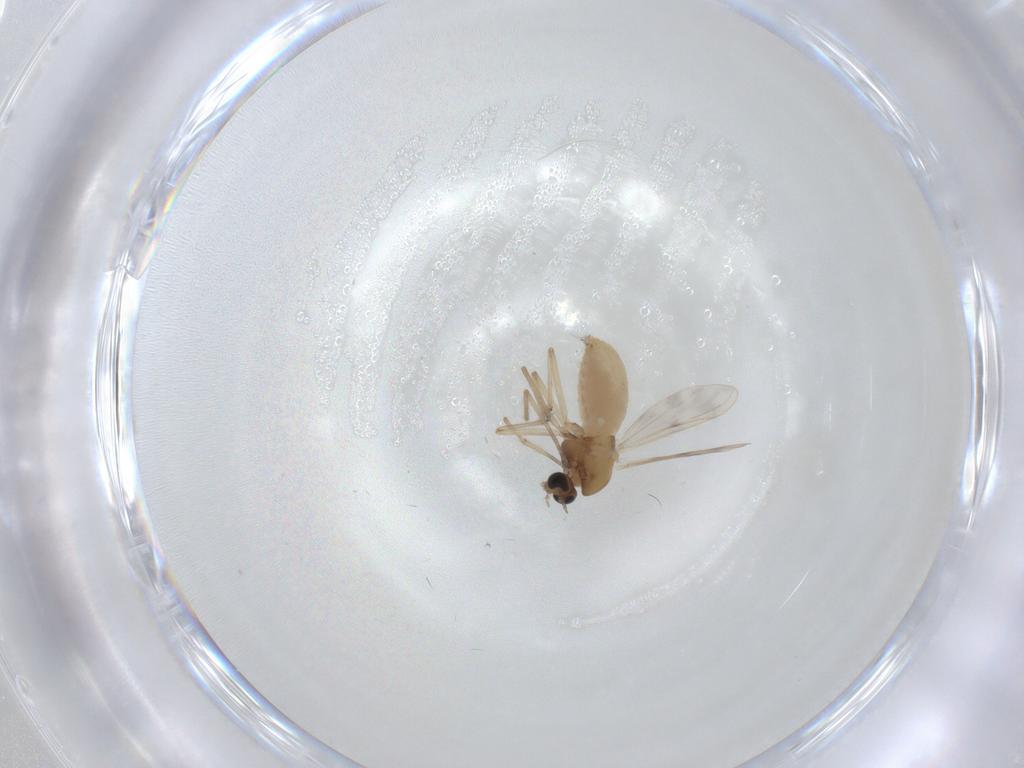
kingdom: Animalia
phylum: Arthropoda
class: Insecta
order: Diptera
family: Chironomidae
